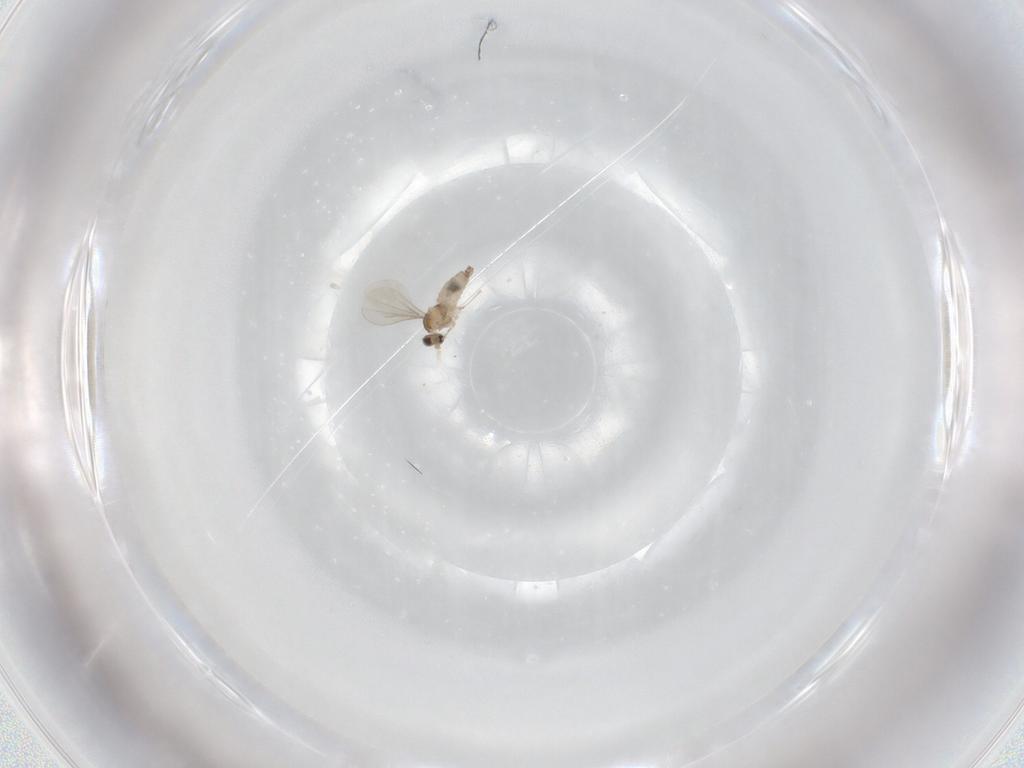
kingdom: Animalia
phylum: Arthropoda
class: Insecta
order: Diptera
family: Cecidomyiidae
